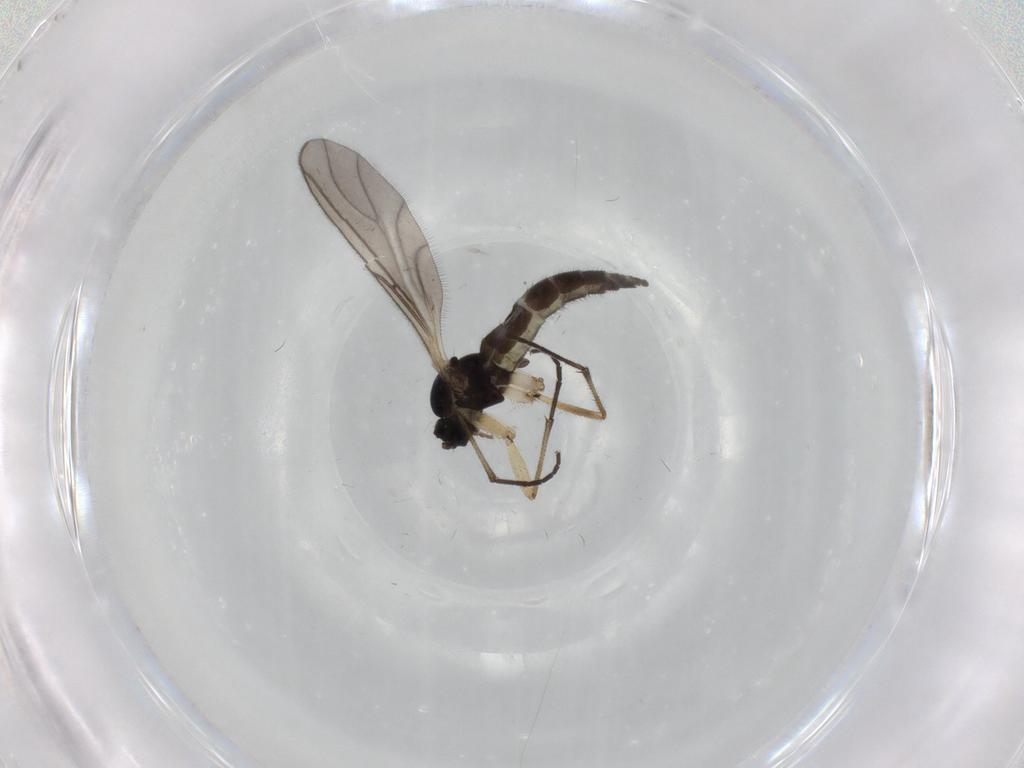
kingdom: Animalia
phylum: Arthropoda
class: Insecta
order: Diptera
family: Sciaridae
